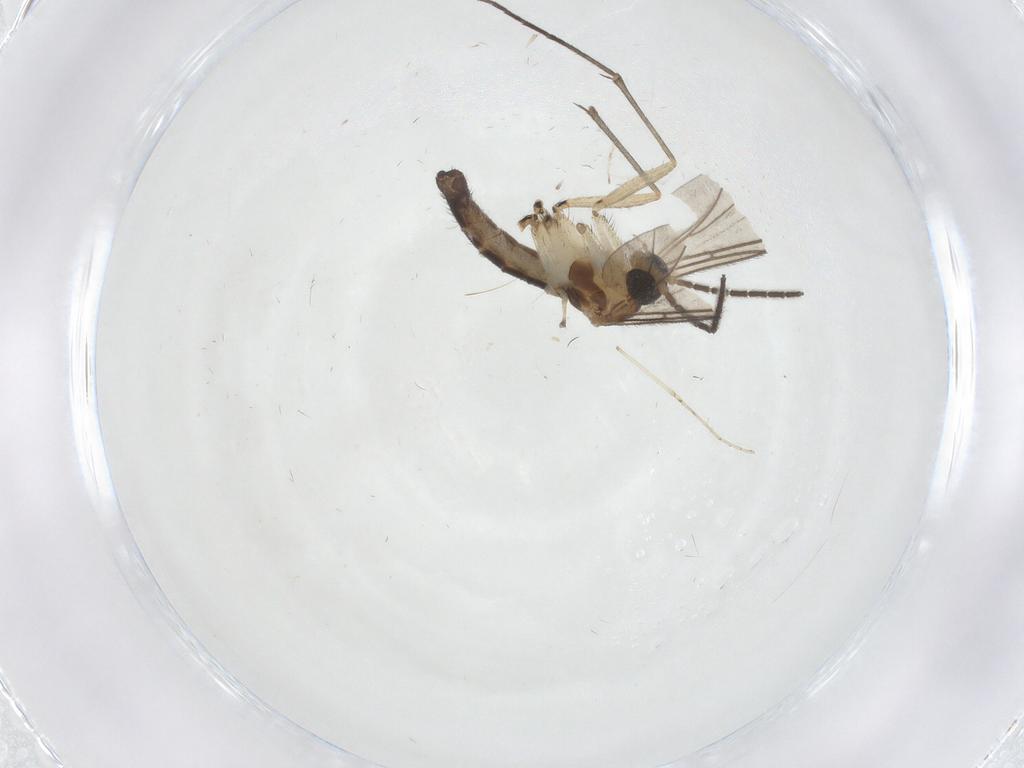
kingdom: Animalia
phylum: Arthropoda
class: Insecta
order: Diptera
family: Sciaridae
